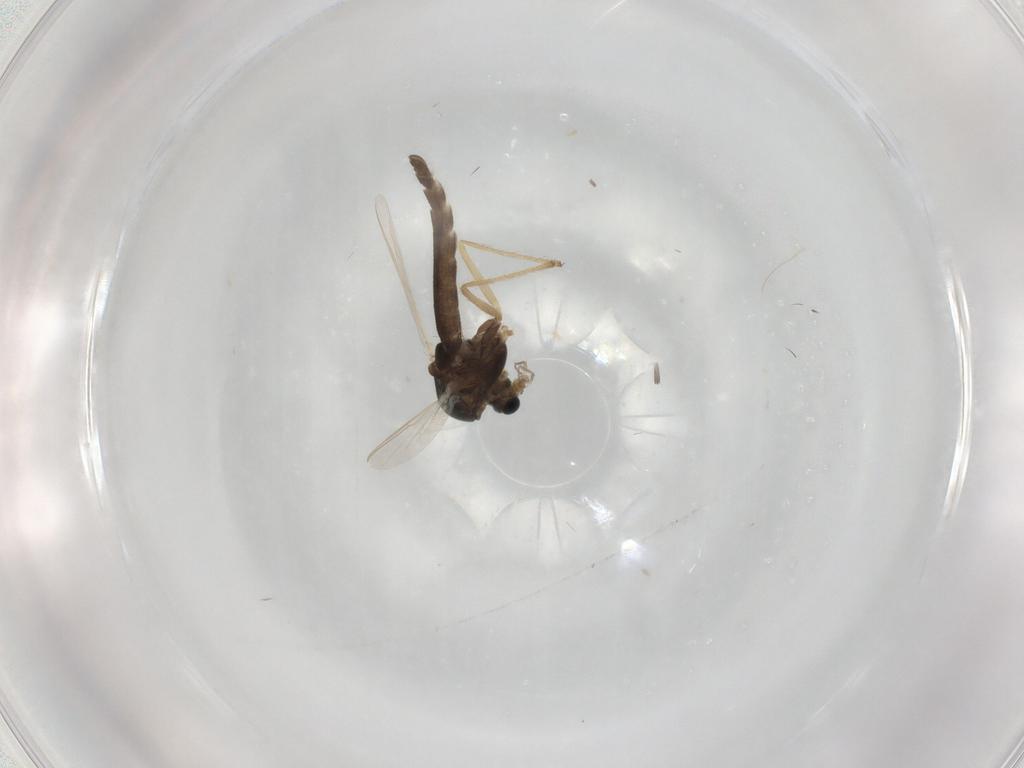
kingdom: Animalia
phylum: Arthropoda
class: Insecta
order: Diptera
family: Chironomidae
